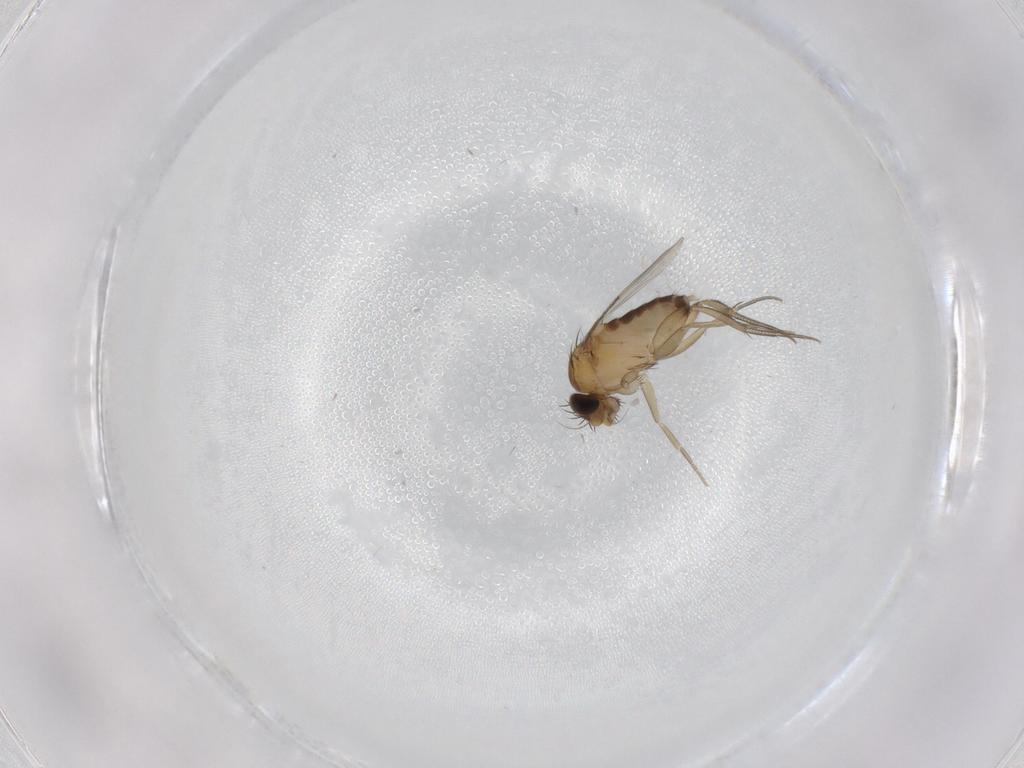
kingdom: Animalia
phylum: Arthropoda
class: Insecta
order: Diptera
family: Phoridae
